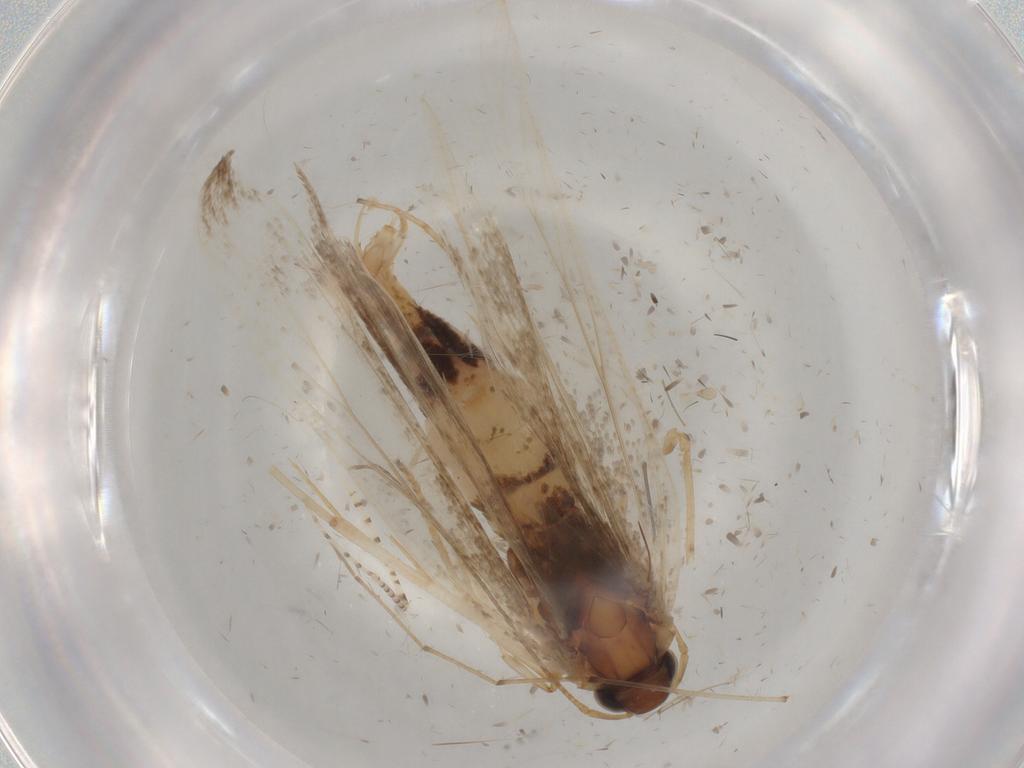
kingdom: Animalia
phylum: Arthropoda
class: Insecta
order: Lepidoptera
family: Gelechiidae
